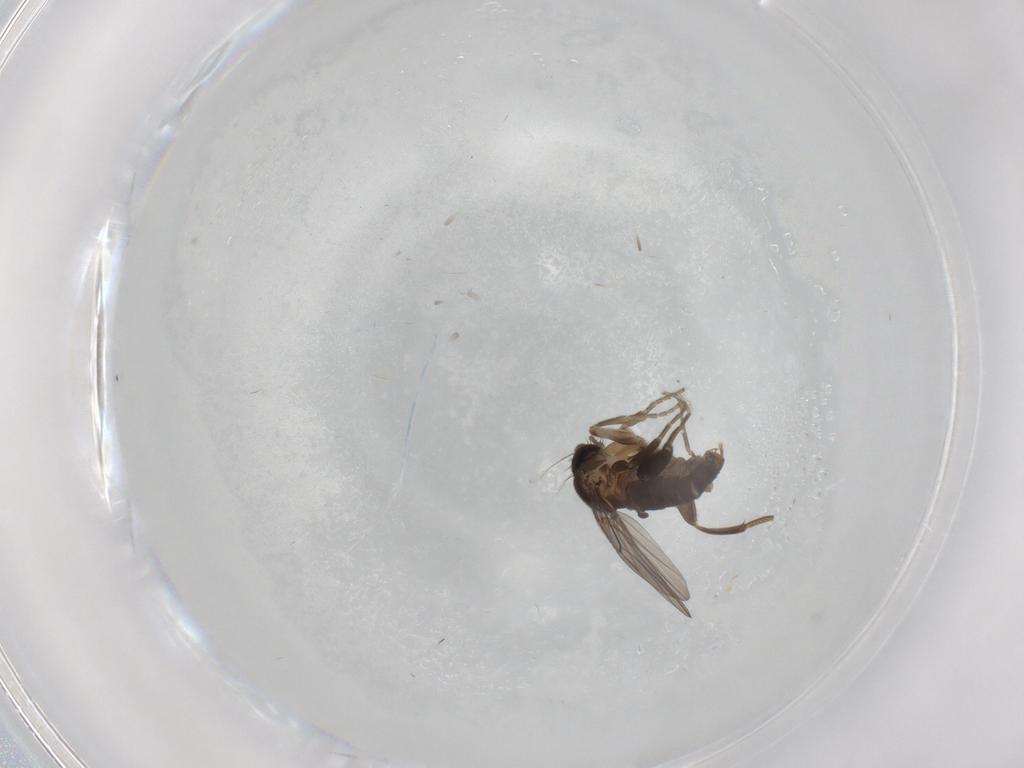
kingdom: Animalia
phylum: Arthropoda
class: Insecta
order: Diptera
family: Phoridae
